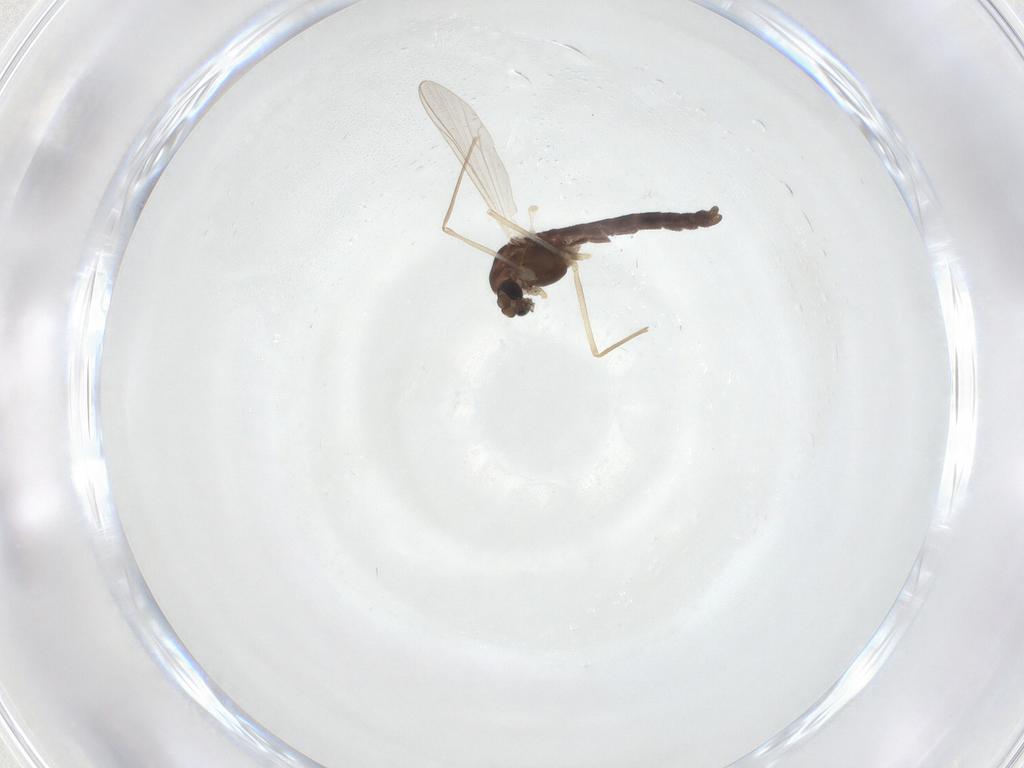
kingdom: Animalia
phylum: Arthropoda
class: Insecta
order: Diptera
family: Chironomidae
